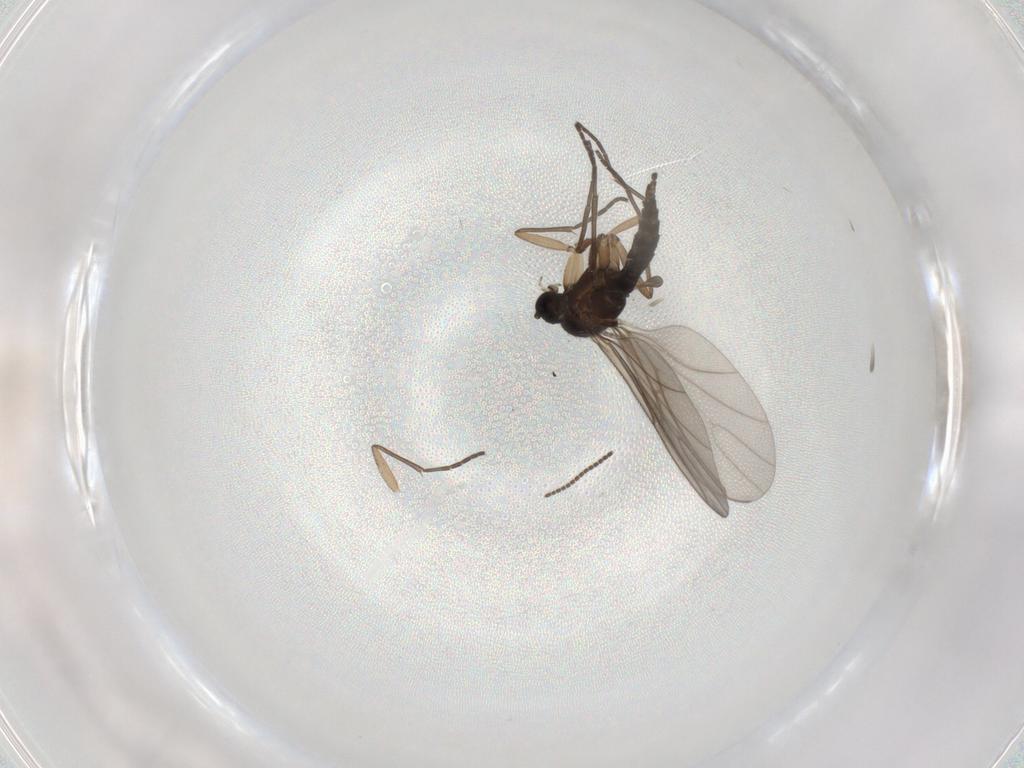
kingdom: Animalia
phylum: Arthropoda
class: Insecta
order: Diptera
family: Sciaridae
